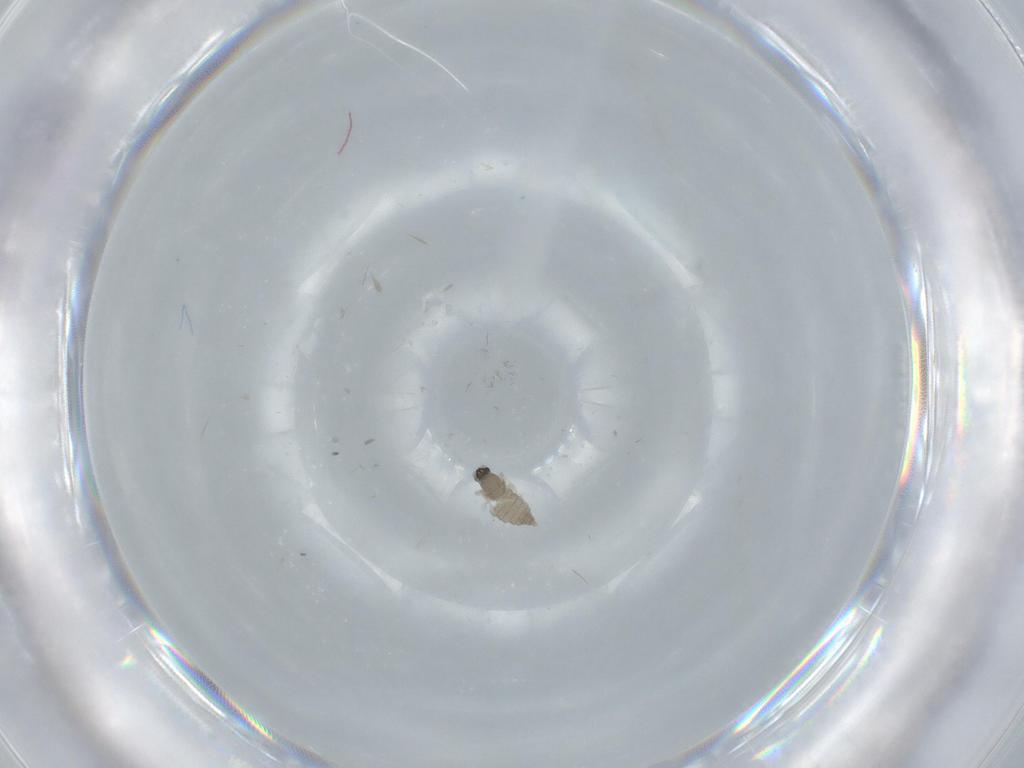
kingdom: Animalia
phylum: Arthropoda
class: Insecta
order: Diptera
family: Cecidomyiidae
